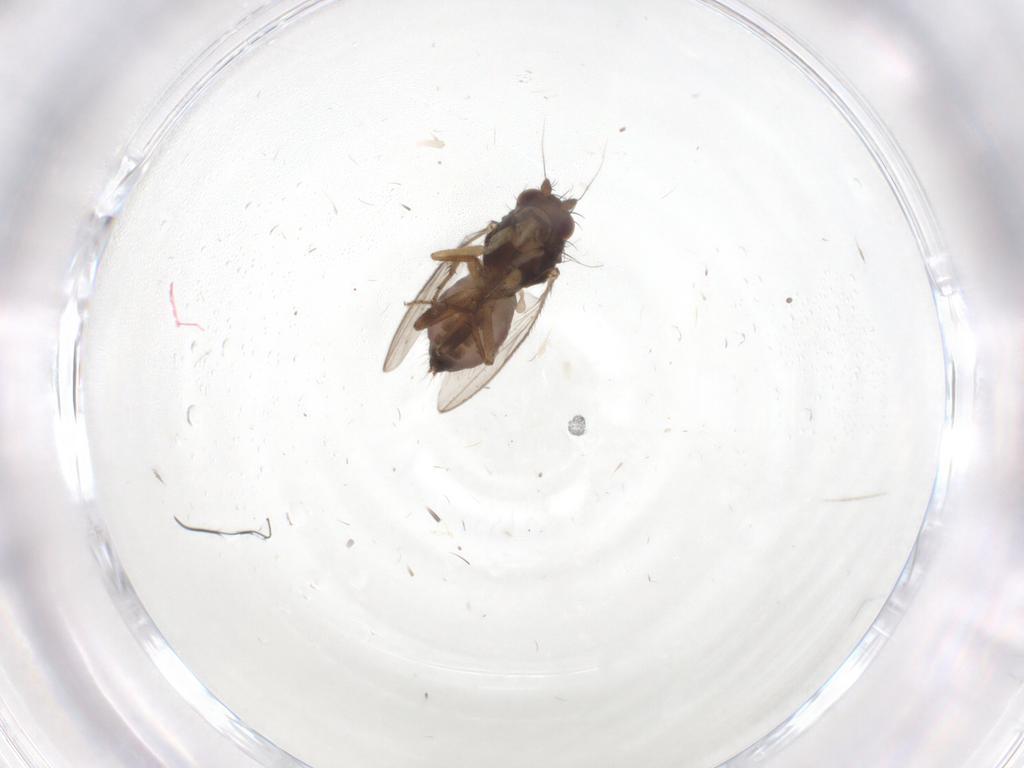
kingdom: Animalia
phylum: Arthropoda
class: Insecta
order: Diptera
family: Sphaeroceridae
